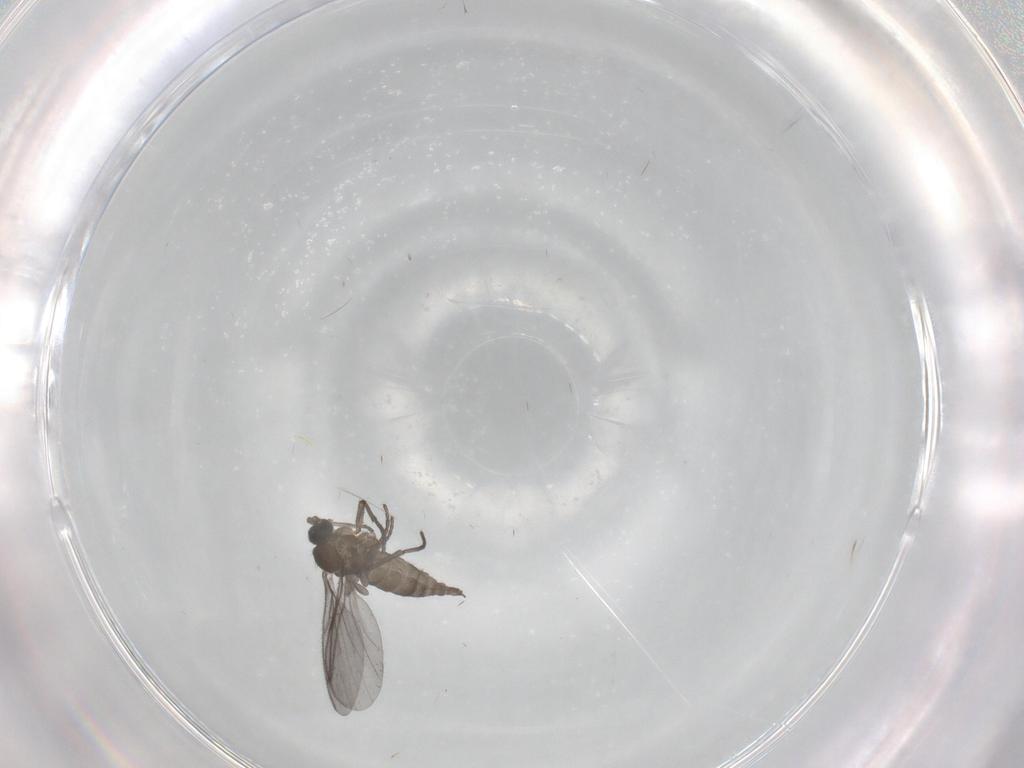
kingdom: Animalia
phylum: Arthropoda
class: Insecta
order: Diptera
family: Sciaridae
